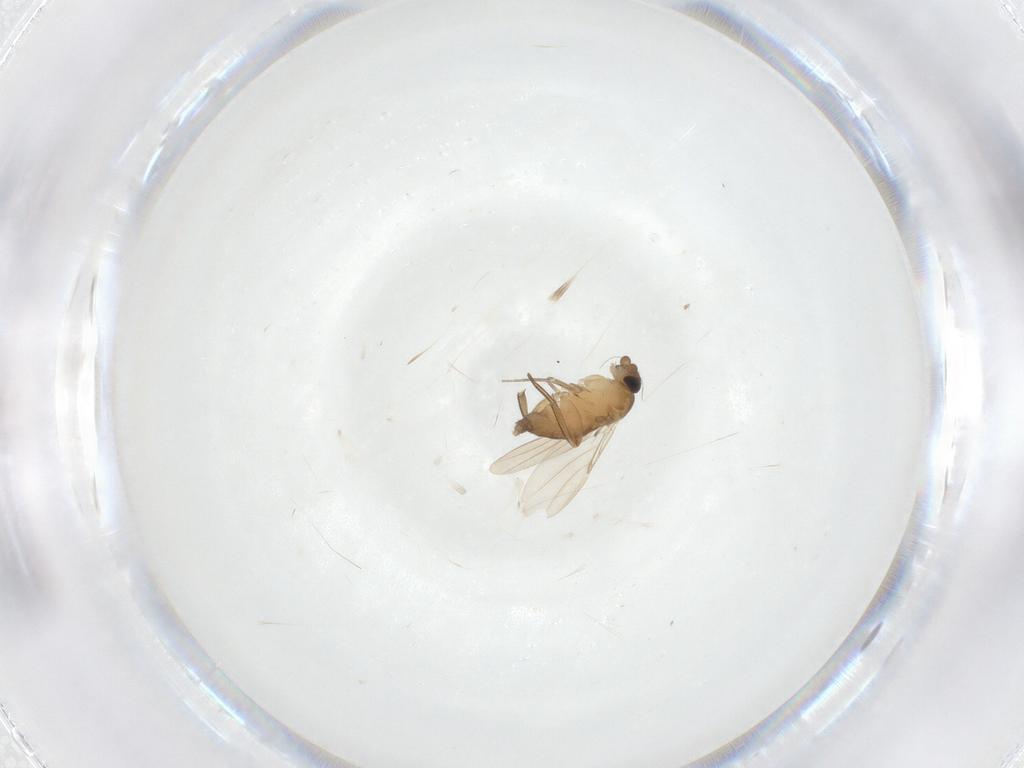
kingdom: Animalia
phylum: Arthropoda
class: Insecta
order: Diptera
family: Phoridae
